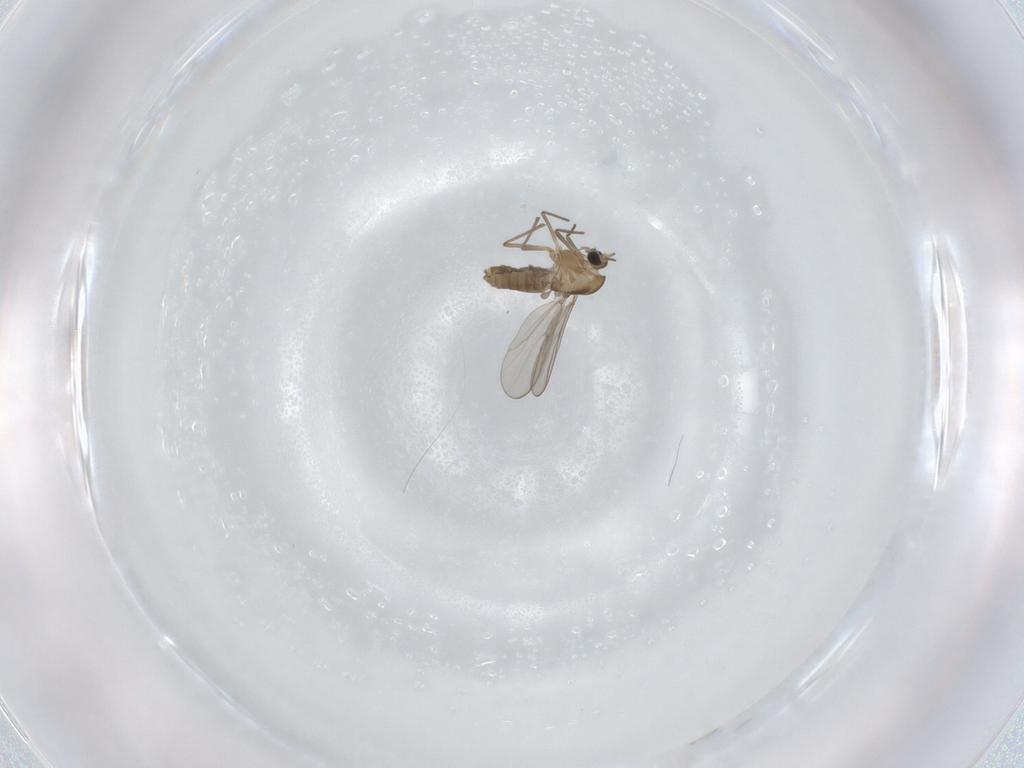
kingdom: Animalia
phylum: Arthropoda
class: Insecta
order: Diptera
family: Chironomidae
